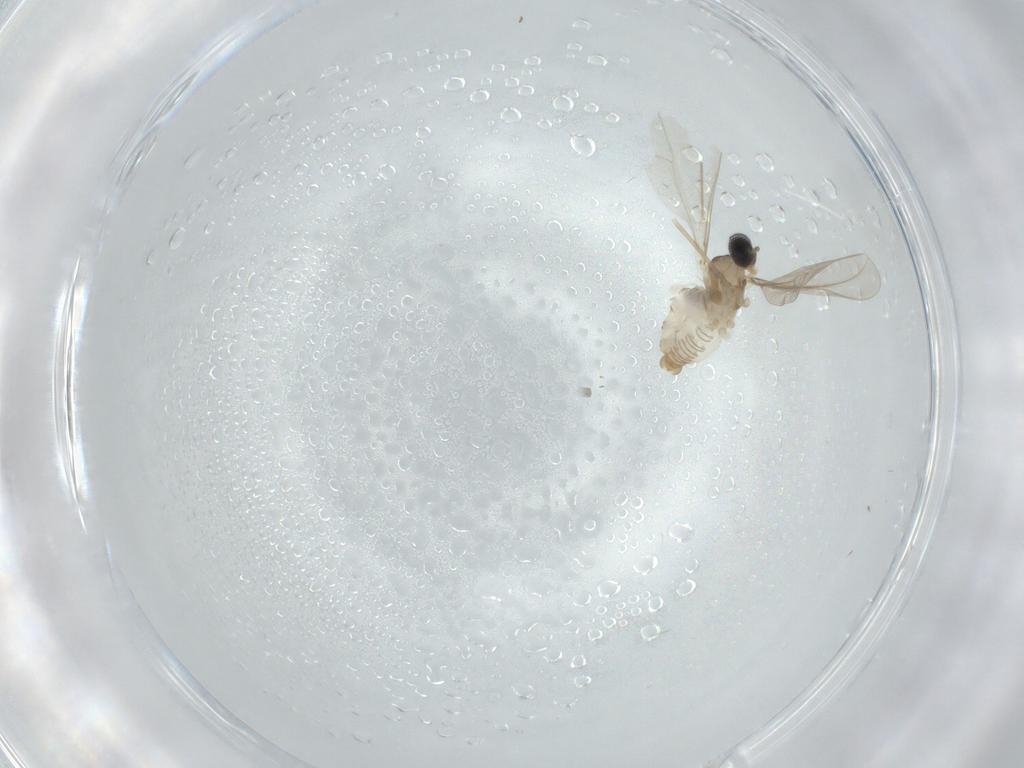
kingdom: Animalia
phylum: Arthropoda
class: Insecta
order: Diptera
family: Cecidomyiidae
